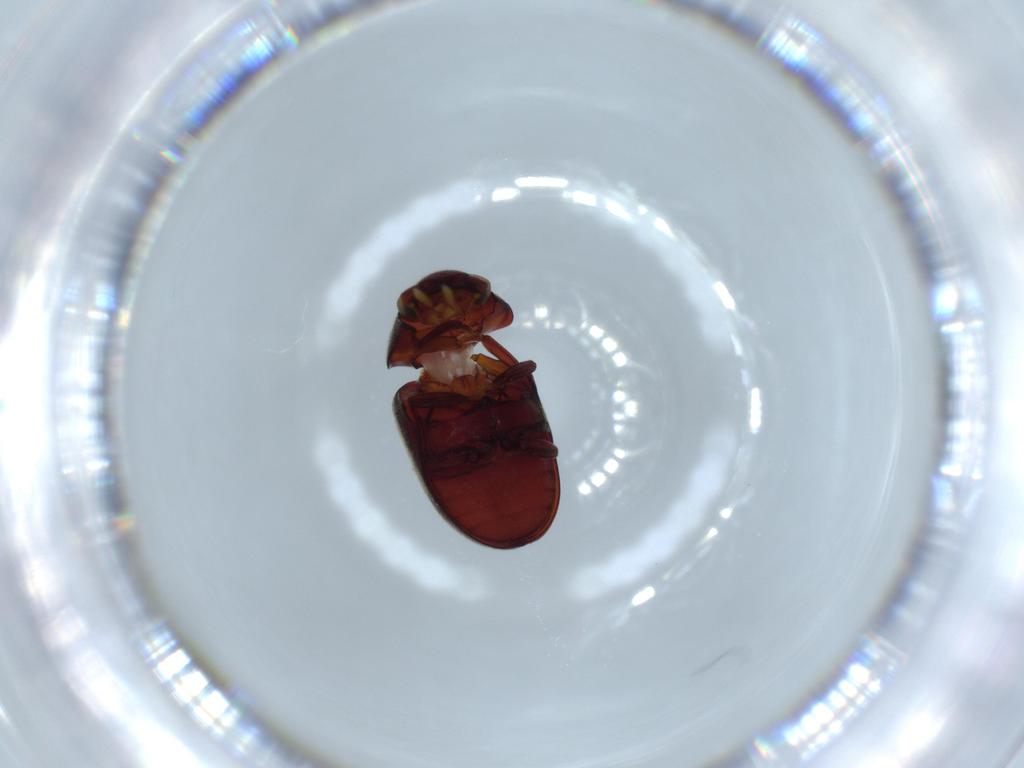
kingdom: Animalia
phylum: Arthropoda
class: Insecta
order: Coleoptera
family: Ptinidae
